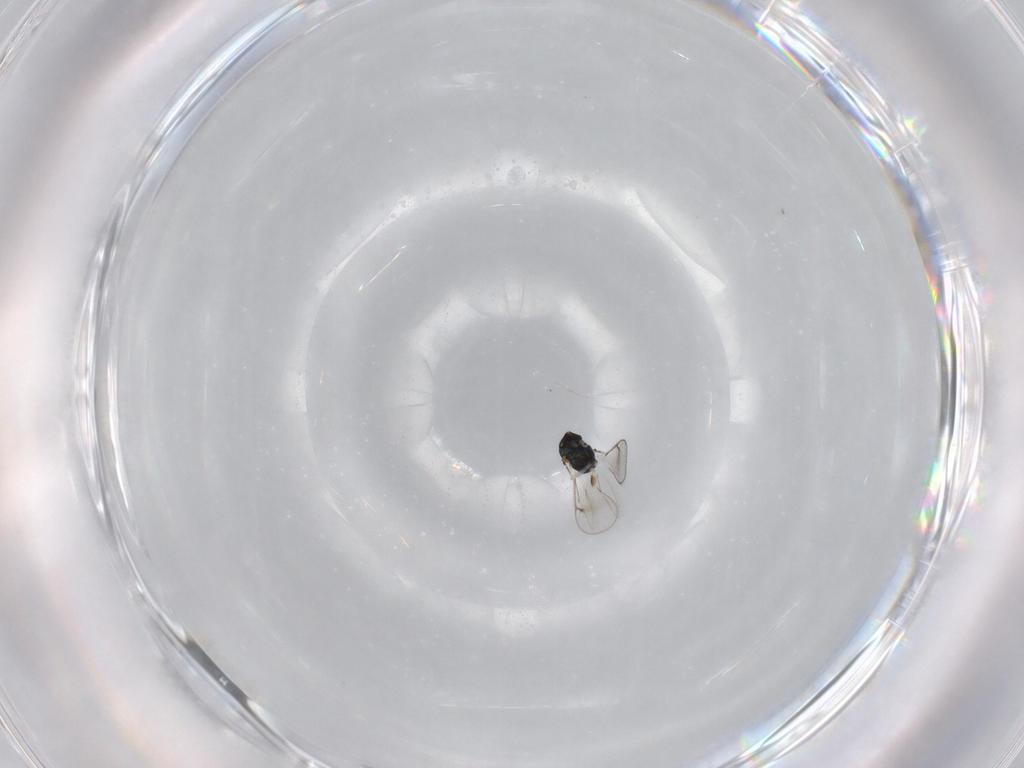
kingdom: Animalia
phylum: Arthropoda
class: Insecta
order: Hymenoptera
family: Eulophidae
